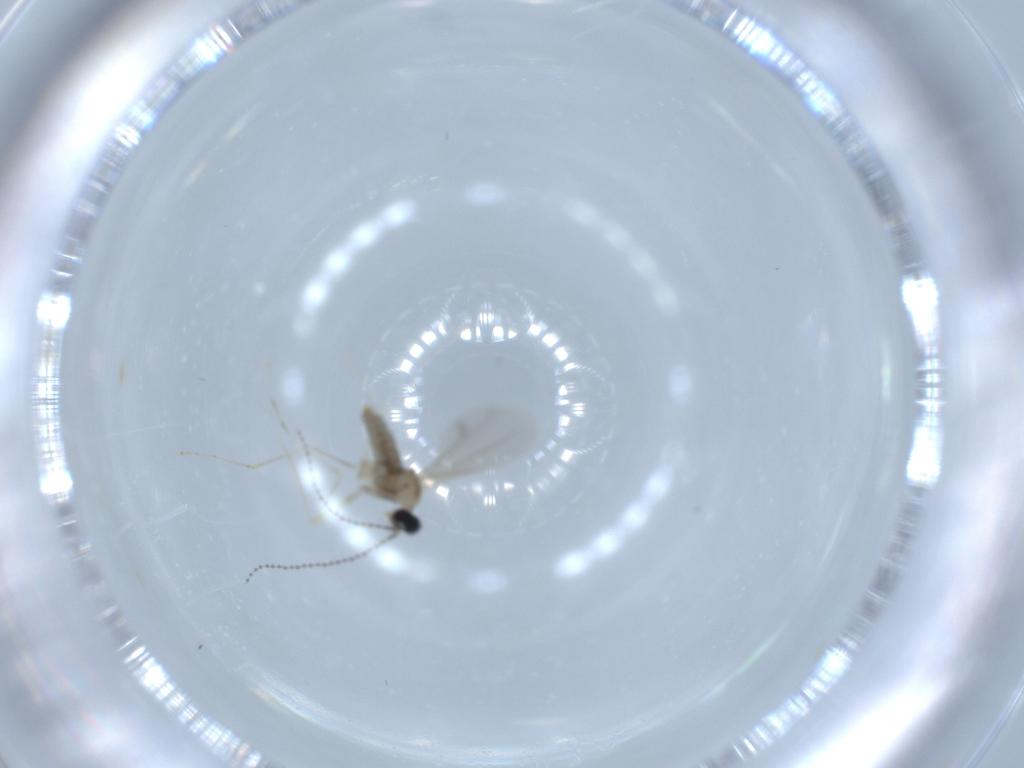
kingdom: Animalia
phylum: Arthropoda
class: Insecta
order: Diptera
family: Cecidomyiidae
